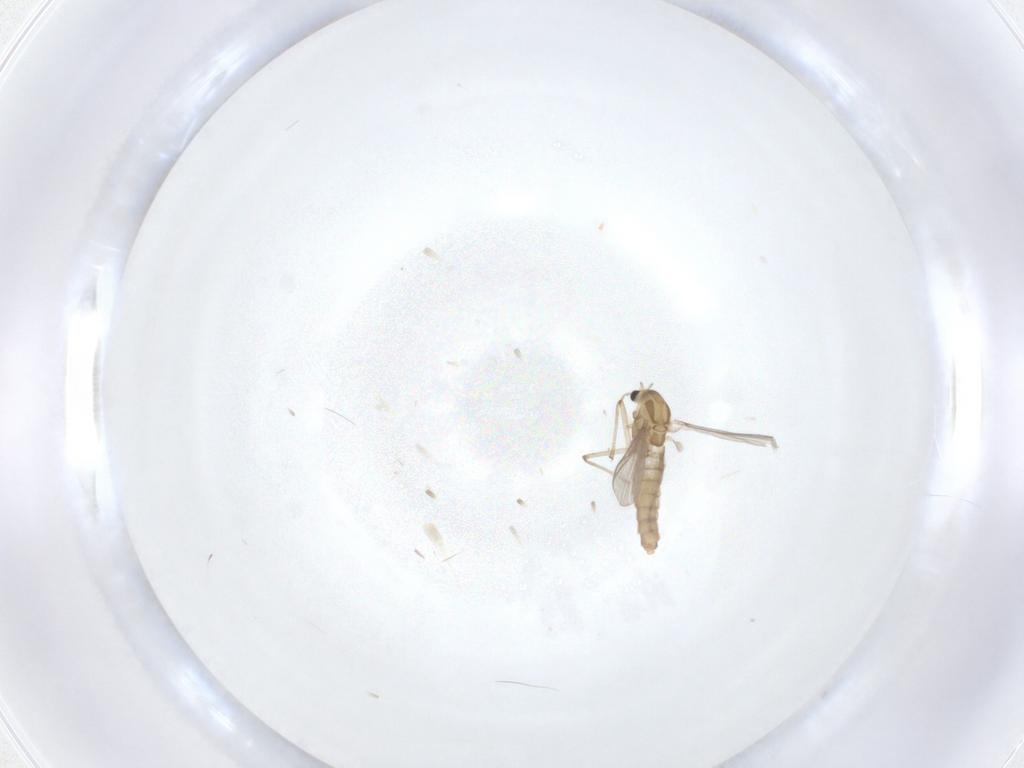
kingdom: Animalia
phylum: Arthropoda
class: Insecta
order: Diptera
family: Chironomidae
